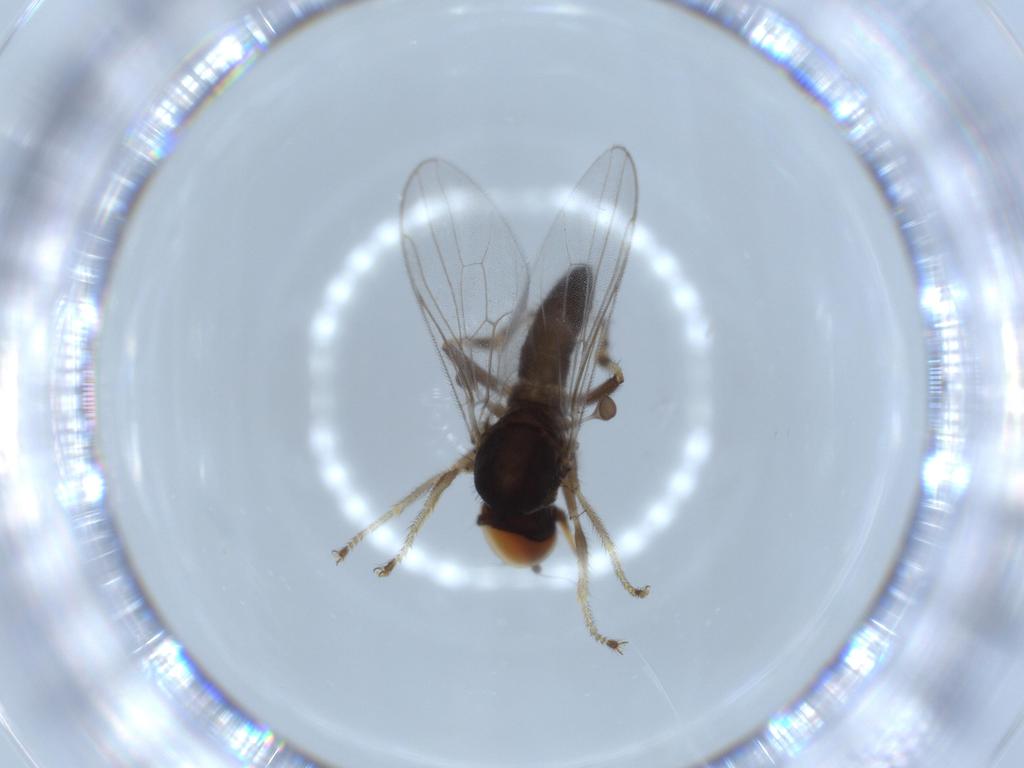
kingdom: Animalia
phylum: Arthropoda
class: Insecta
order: Diptera
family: Hybotidae
